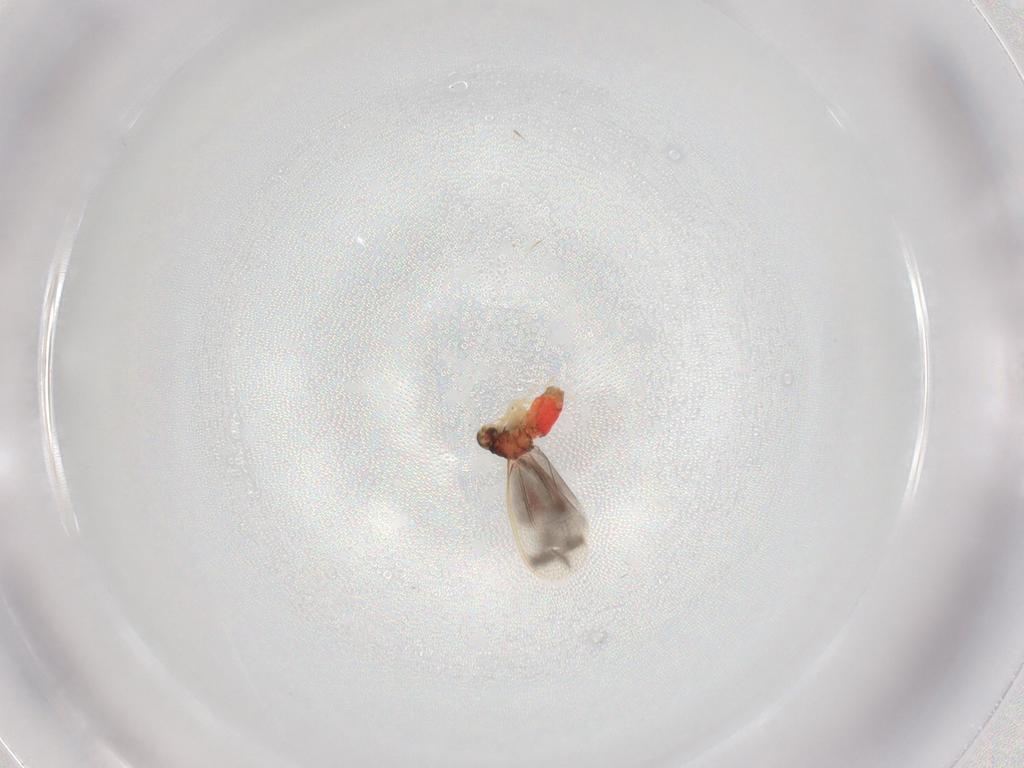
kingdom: Animalia
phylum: Arthropoda
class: Insecta
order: Hemiptera
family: Aleyrodidae
